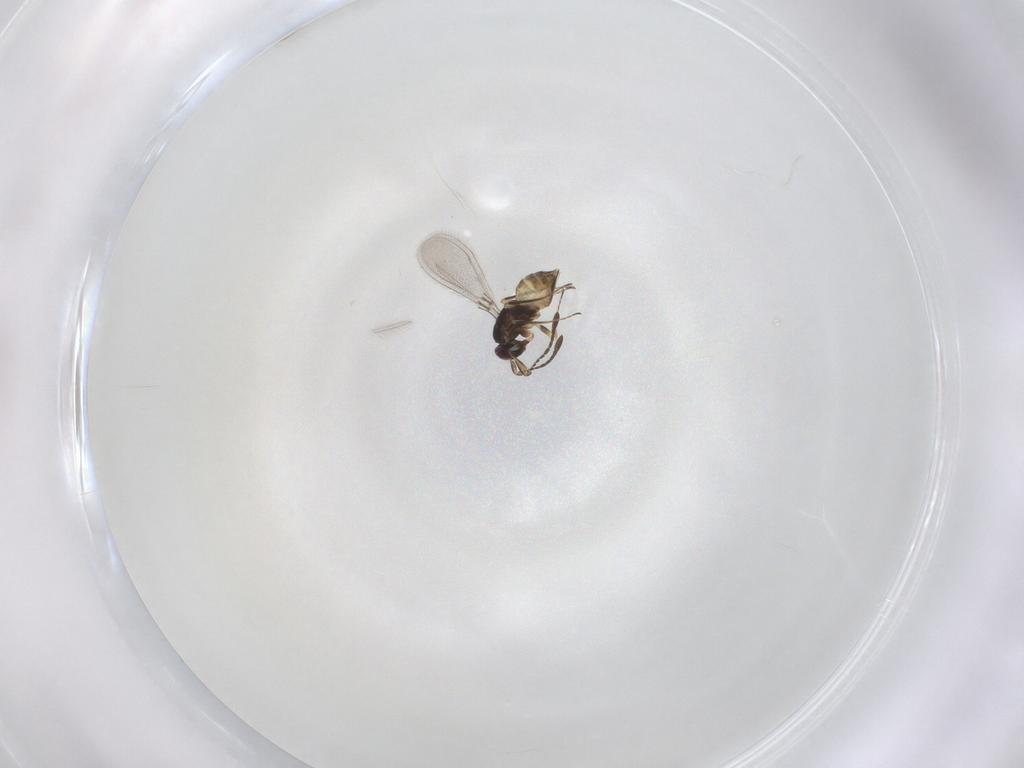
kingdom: Animalia
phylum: Arthropoda
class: Insecta
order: Hymenoptera
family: Mymaridae
